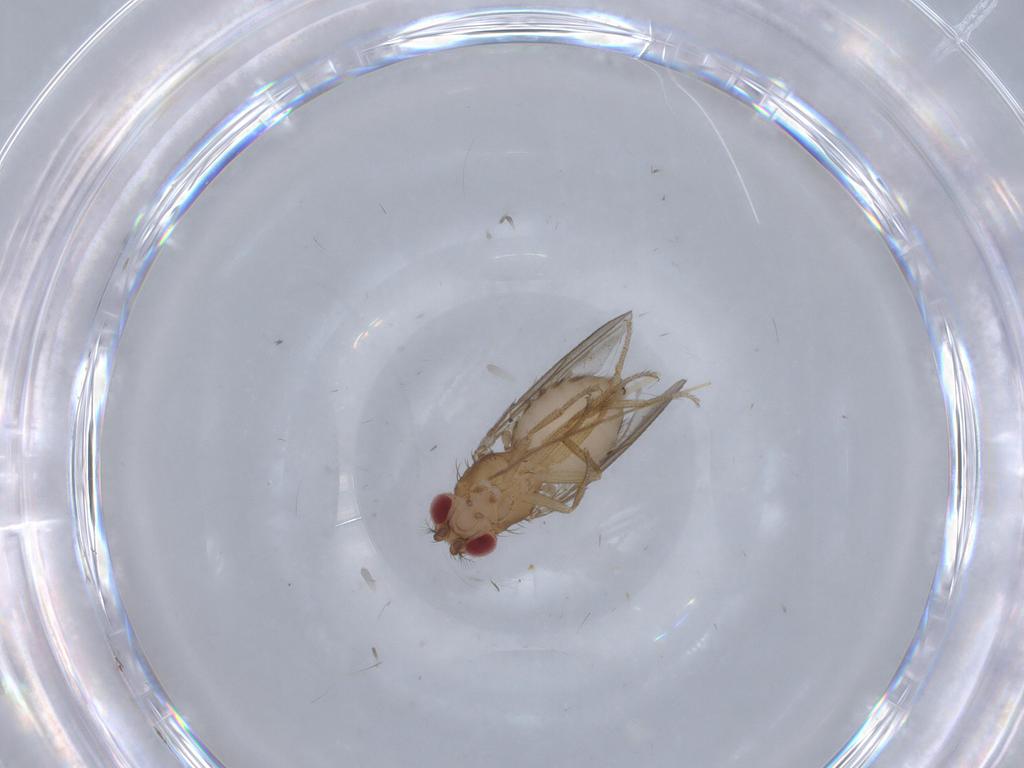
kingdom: Animalia
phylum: Arthropoda
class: Insecta
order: Diptera
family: Drosophilidae
